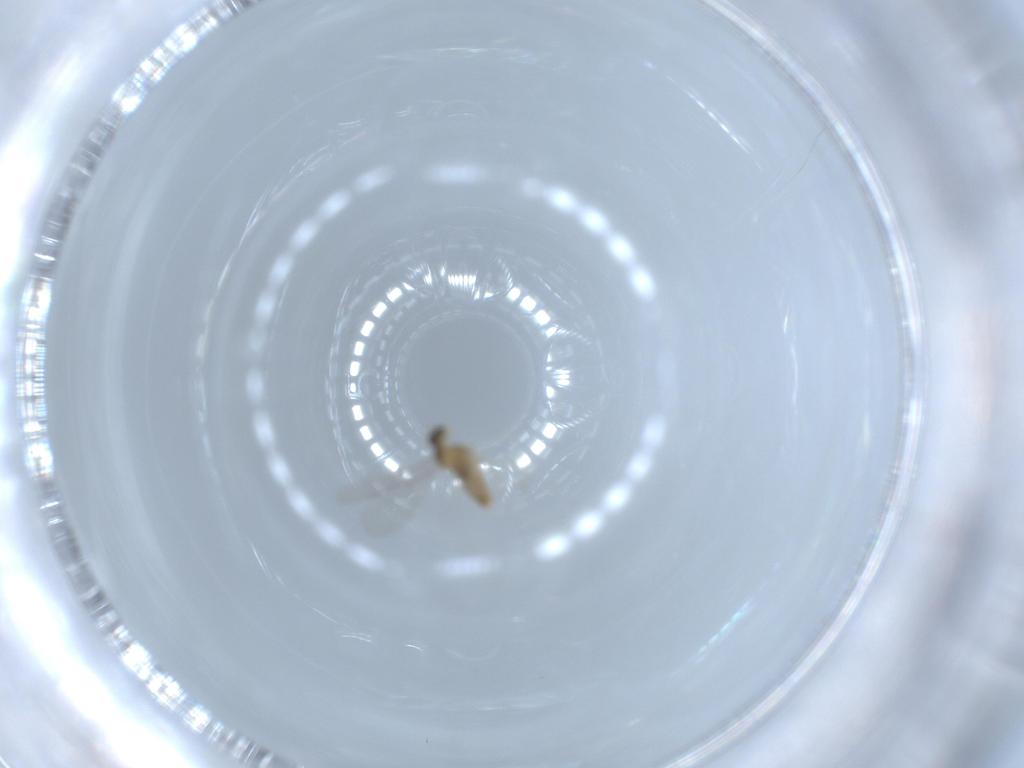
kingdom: Animalia
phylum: Arthropoda
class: Insecta
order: Diptera
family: Cecidomyiidae
